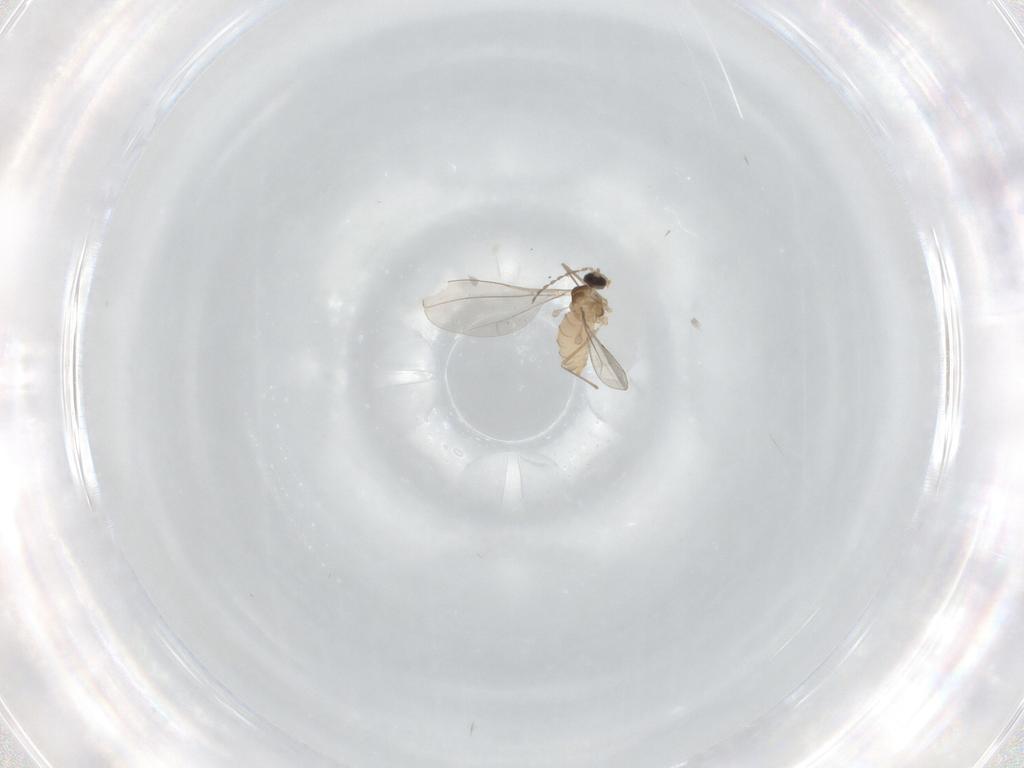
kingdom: Animalia
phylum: Arthropoda
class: Insecta
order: Diptera
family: Cecidomyiidae
